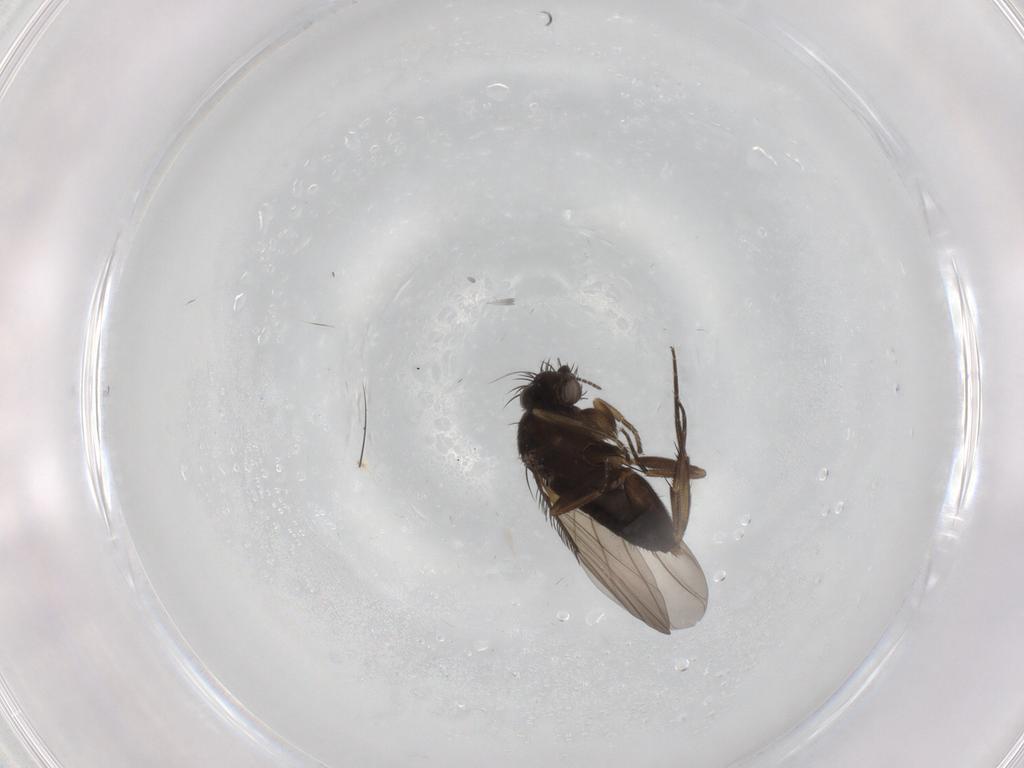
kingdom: Animalia
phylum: Arthropoda
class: Insecta
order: Diptera
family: Phoridae
